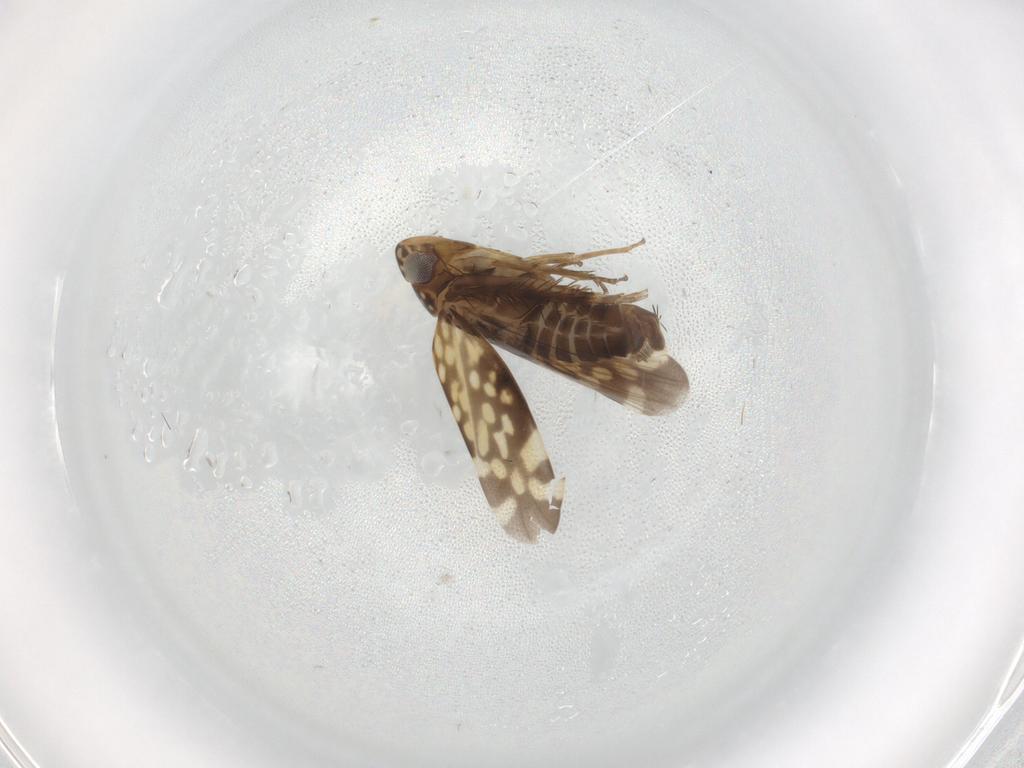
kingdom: Animalia
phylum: Arthropoda
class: Insecta
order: Hemiptera
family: Cicadellidae
